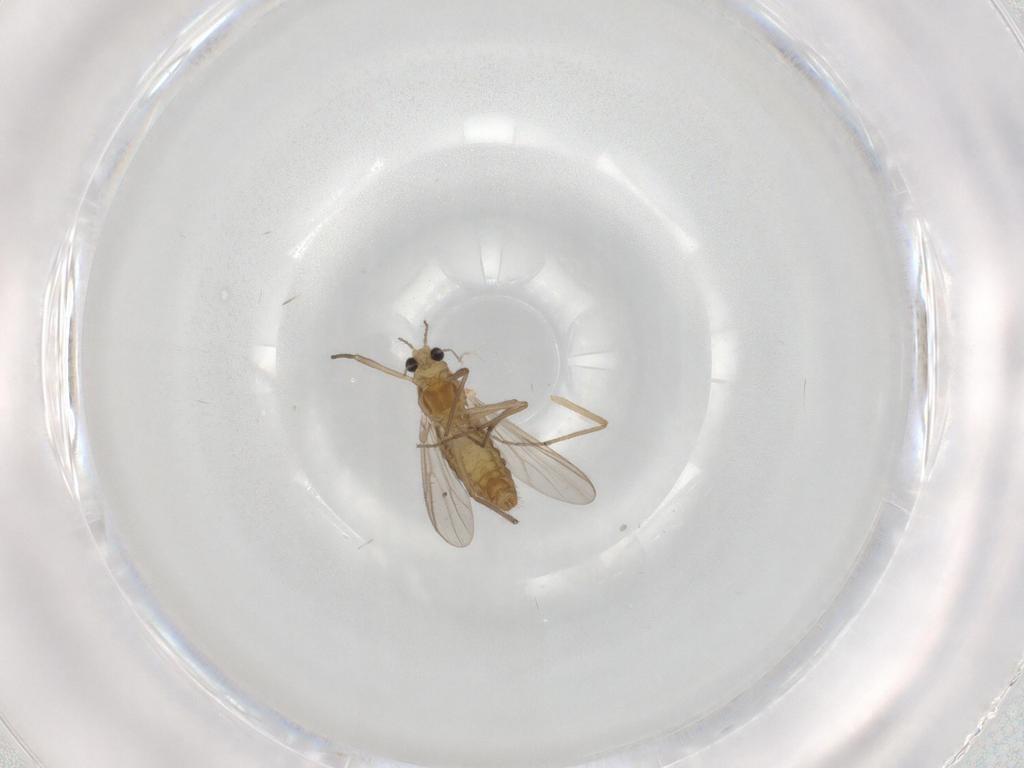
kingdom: Animalia
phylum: Arthropoda
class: Insecta
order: Diptera
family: Chironomidae
